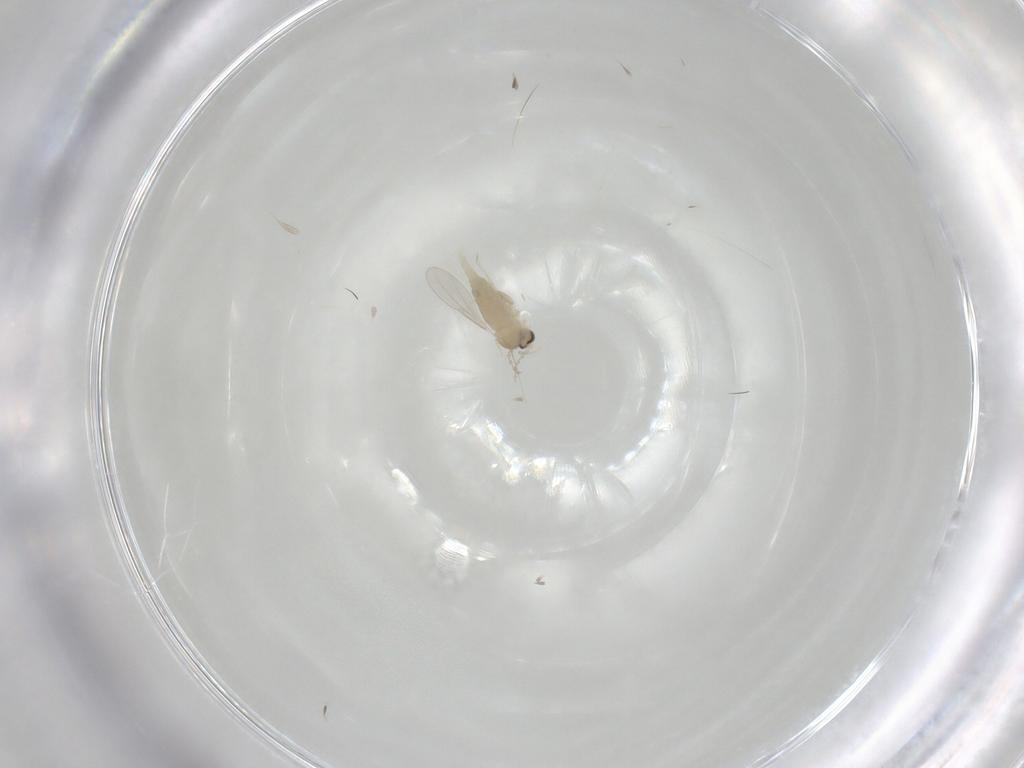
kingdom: Animalia
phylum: Arthropoda
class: Insecta
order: Diptera
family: Cecidomyiidae
